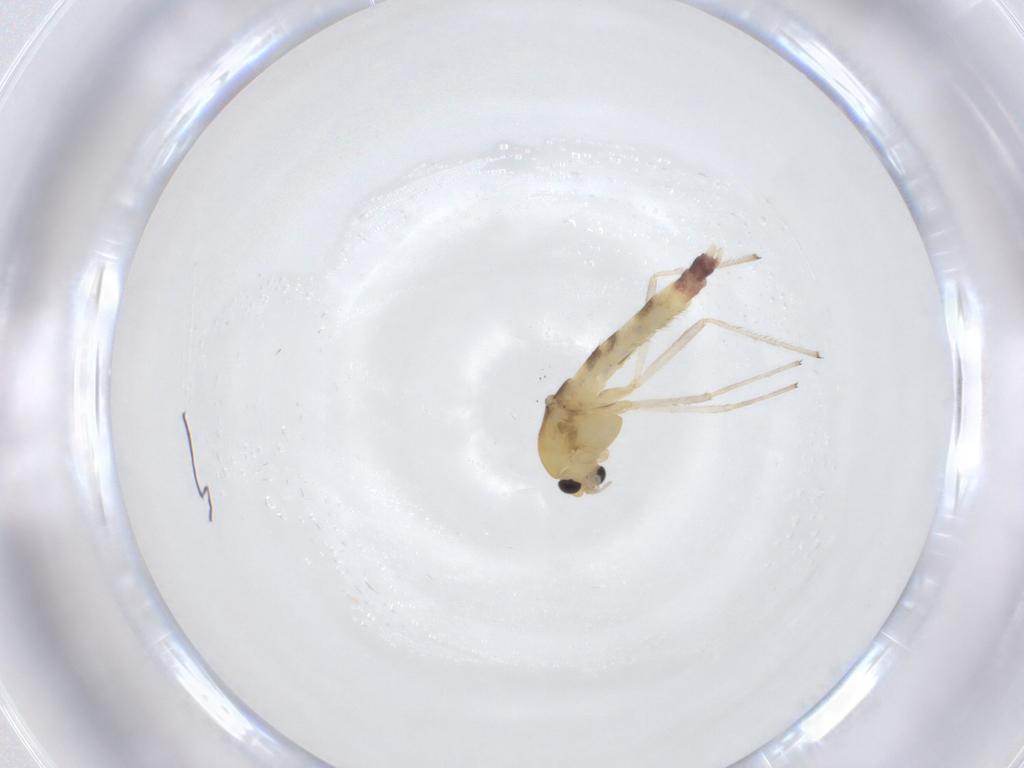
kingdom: Animalia
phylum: Arthropoda
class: Insecta
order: Diptera
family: Chironomidae
